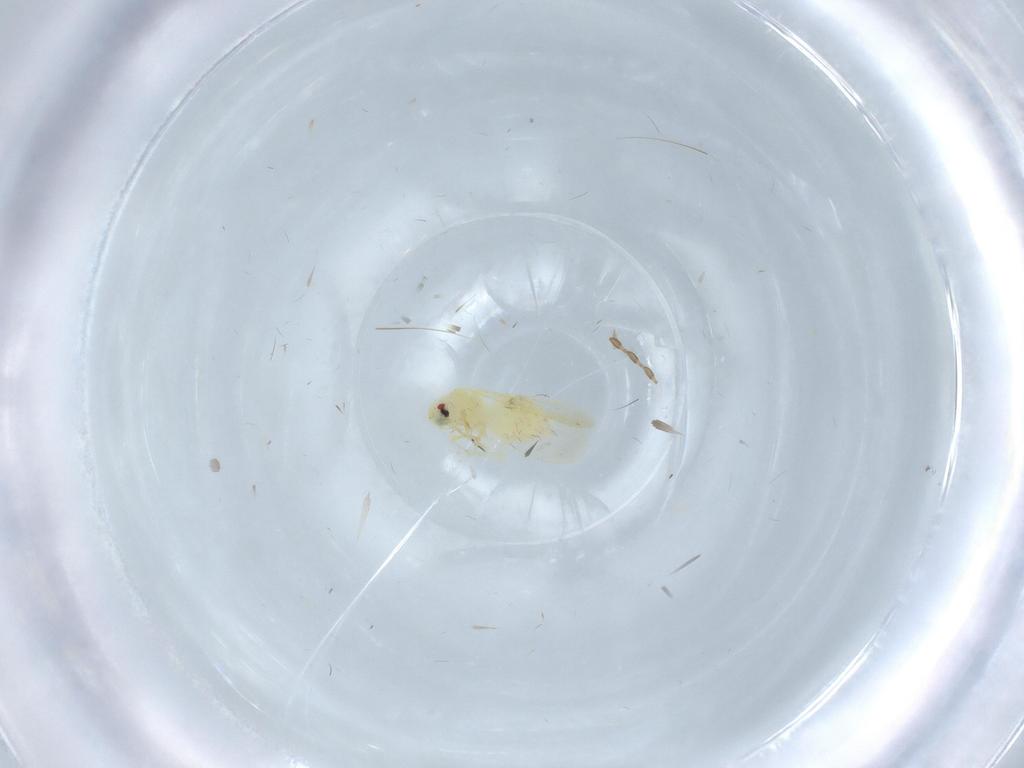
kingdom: Animalia
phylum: Arthropoda
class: Insecta
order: Hemiptera
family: Aleyrodidae
